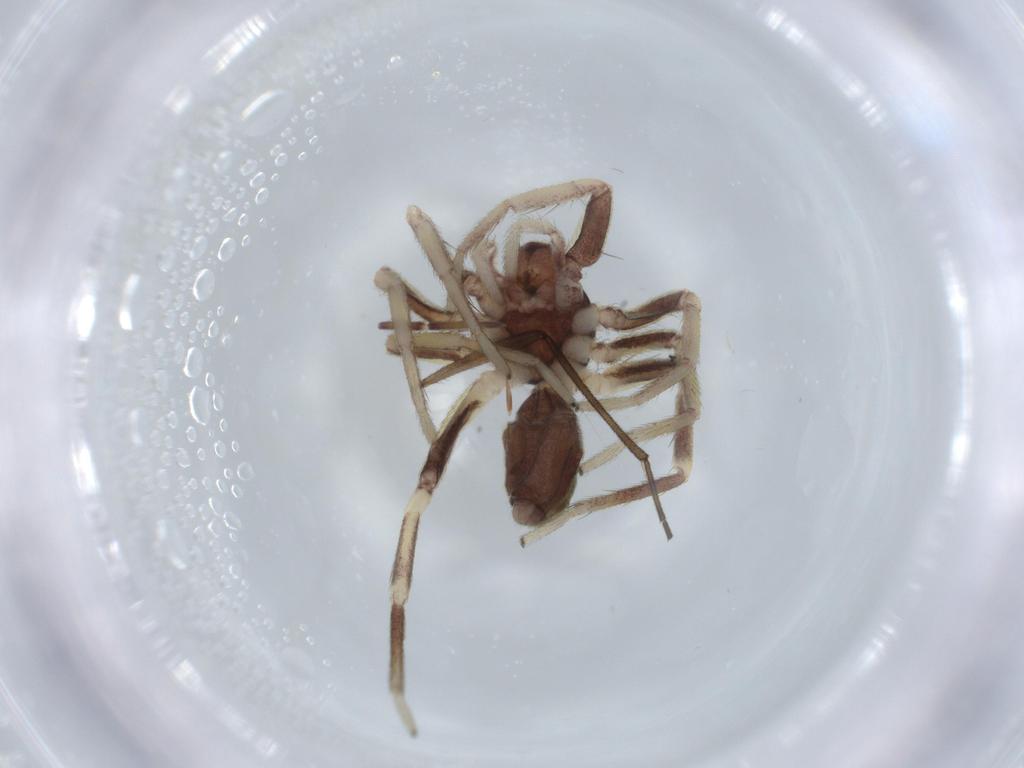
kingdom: Animalia
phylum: Arthropoda
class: Arachnida
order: Araneae
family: Corinnidae
